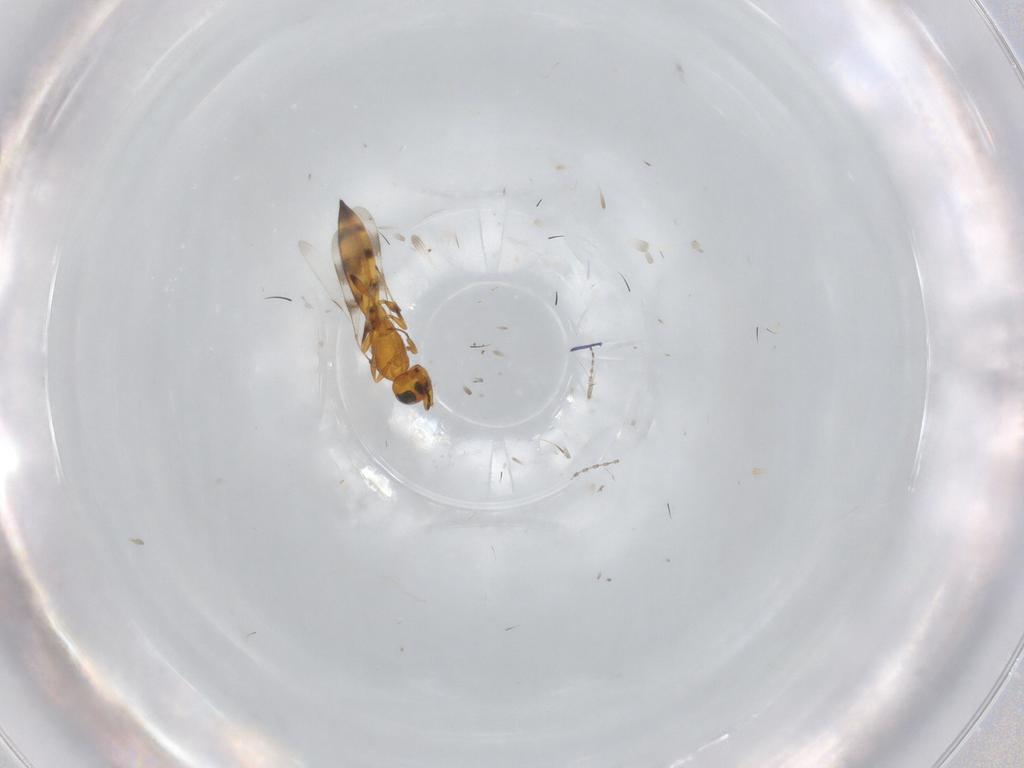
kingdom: Animalia
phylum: Arthropoda
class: Insecta
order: Hymenoptera
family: Scelionidae
